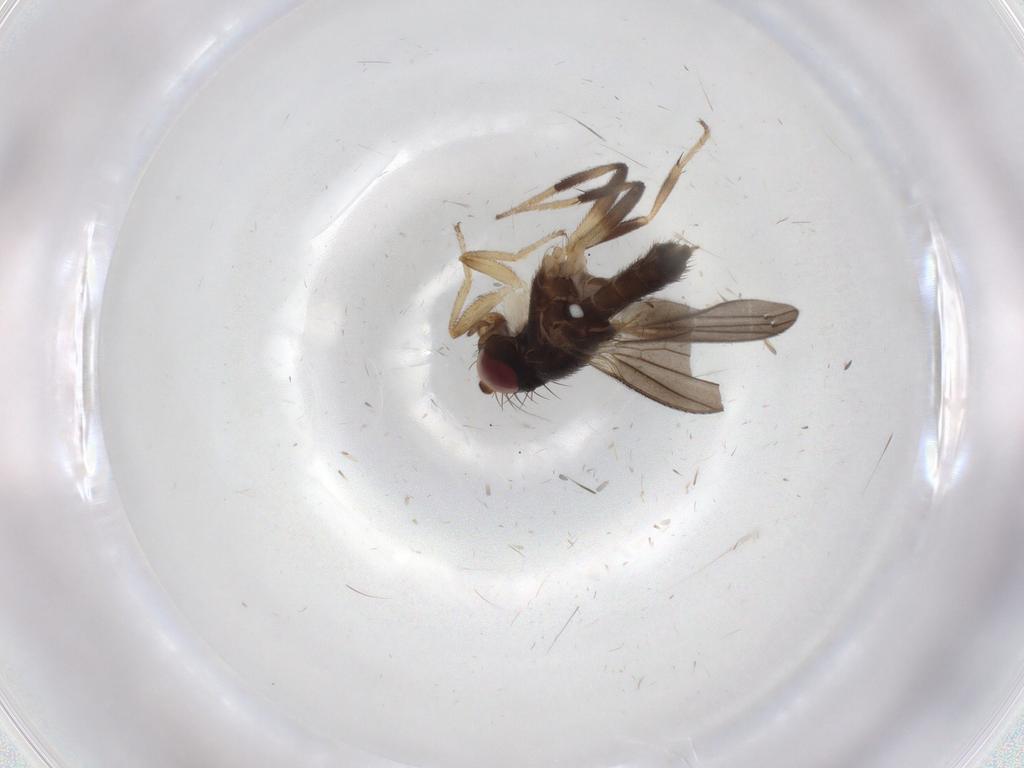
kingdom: Animalia
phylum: Arthropoda
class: Insecta
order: Diptera
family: Clusiidae
